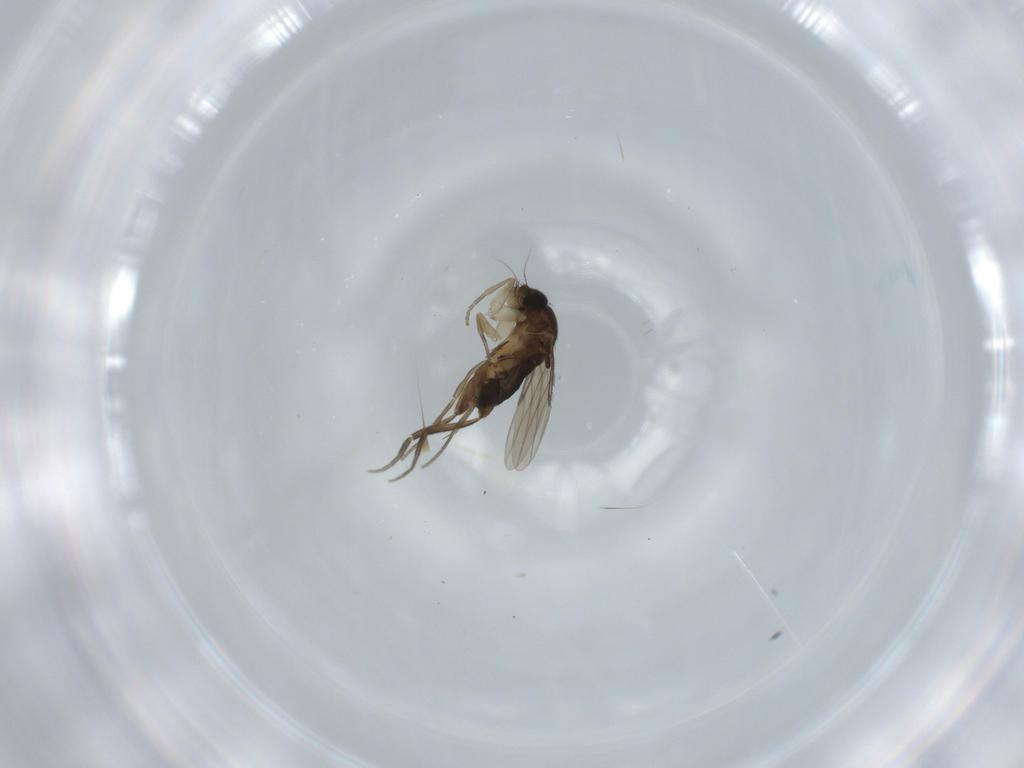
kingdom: Animalia
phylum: Arthropoda
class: Insecta
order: Diptera
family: Phoridae
